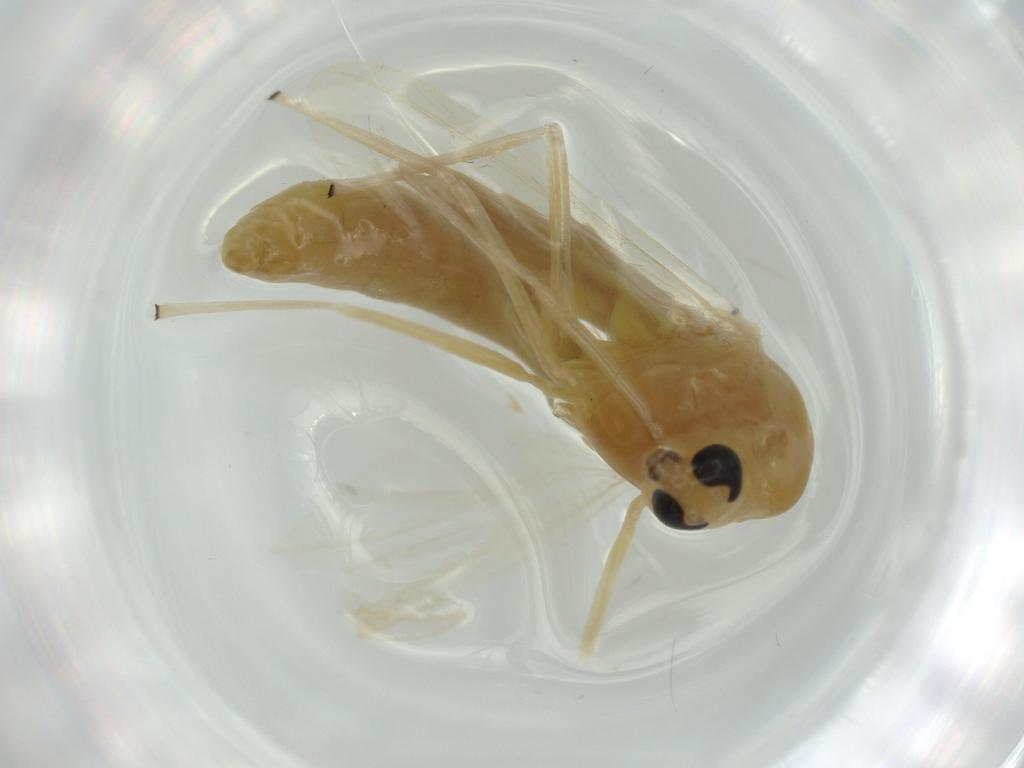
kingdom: Animalia
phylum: Arthropoda
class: Insecta
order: Diptera
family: Chironomidae
